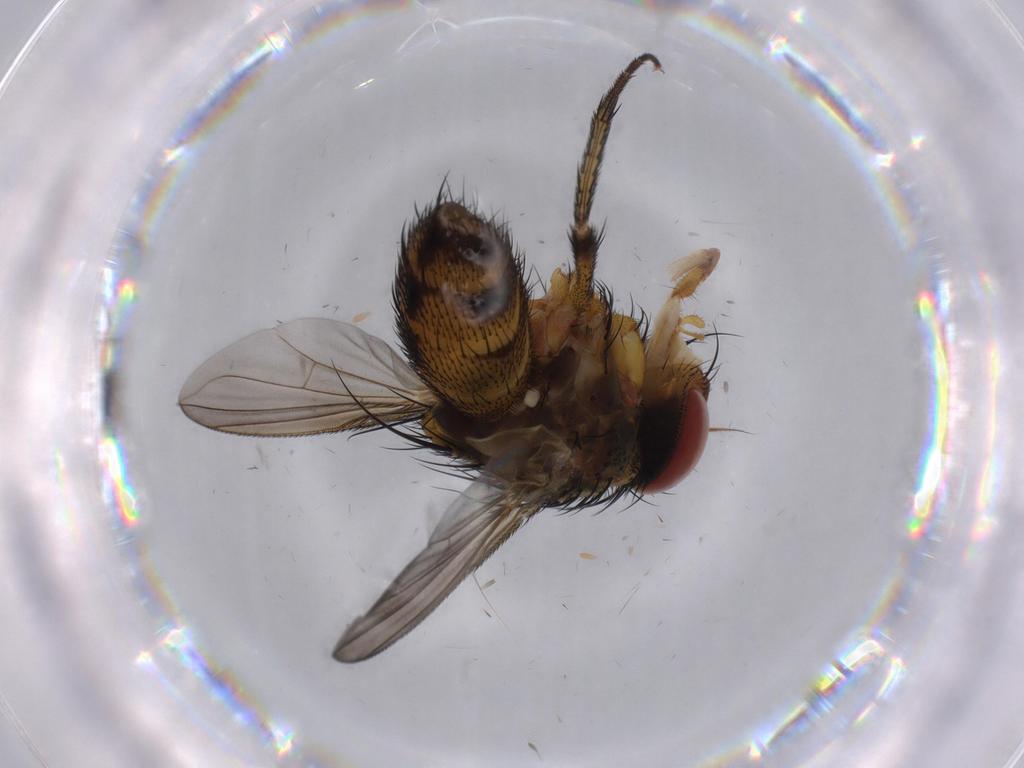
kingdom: Animalia
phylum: Arthropoda
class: Insecta
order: Diptera
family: Cecidomyiidae
